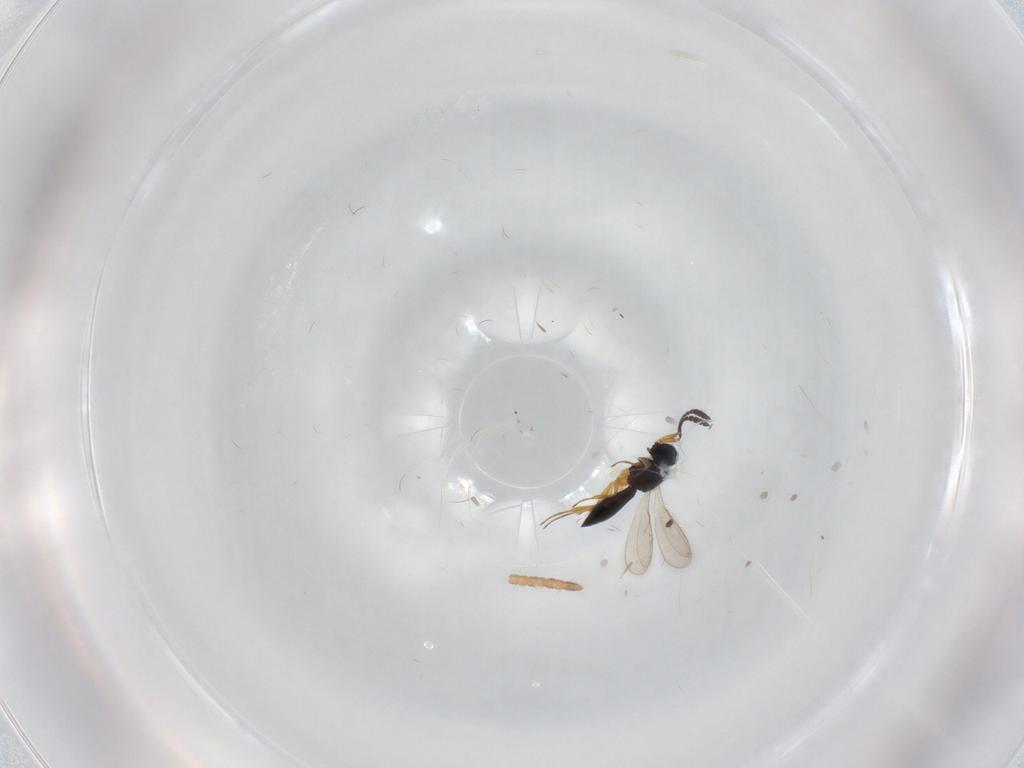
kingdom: Animalia
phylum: Arthropoda
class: Insecta
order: Hymenoptera
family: Scelionidae
